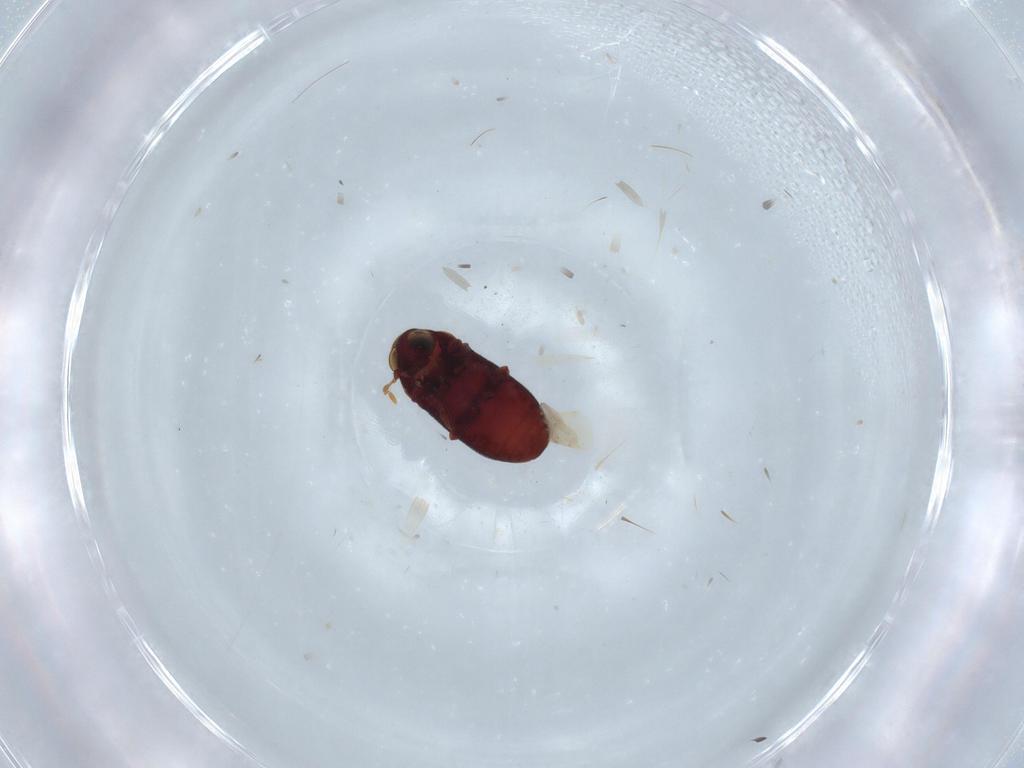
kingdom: Animalia
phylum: Arthropoda
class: Insecta
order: Coleoptera
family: Ptinidae
